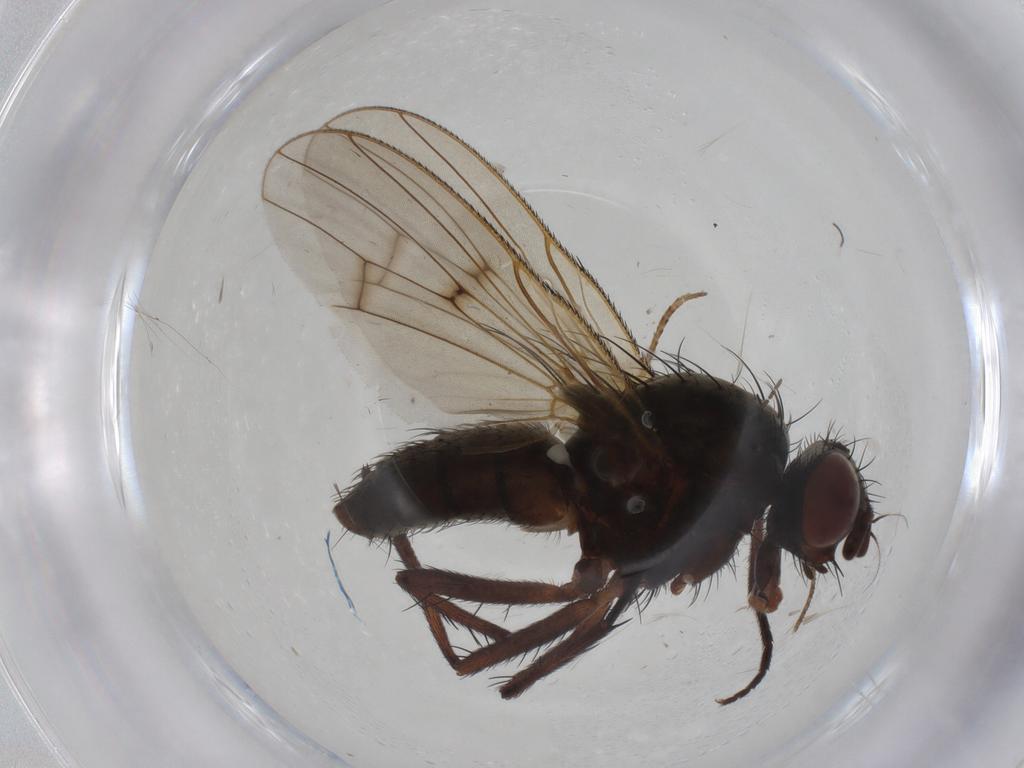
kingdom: Animalia
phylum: Arthropoda
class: Insecta
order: Diptera
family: Anthomyiidae
